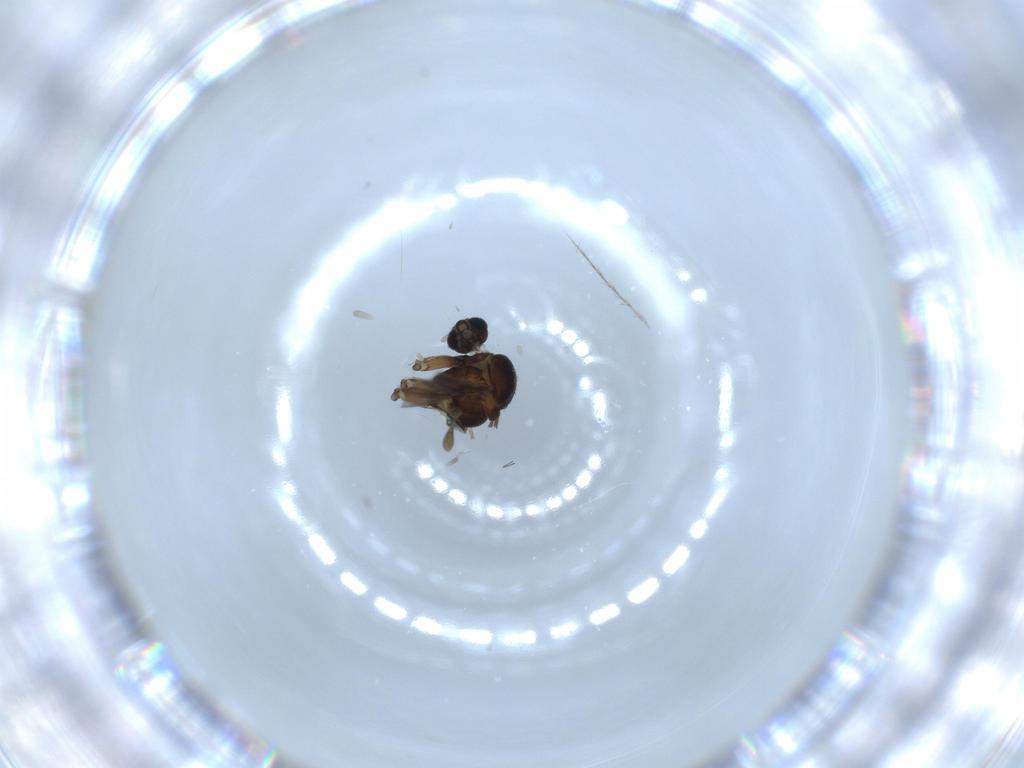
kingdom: Animalia
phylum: Arthropoda
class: Insecta
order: Diptera
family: Sciaridae
